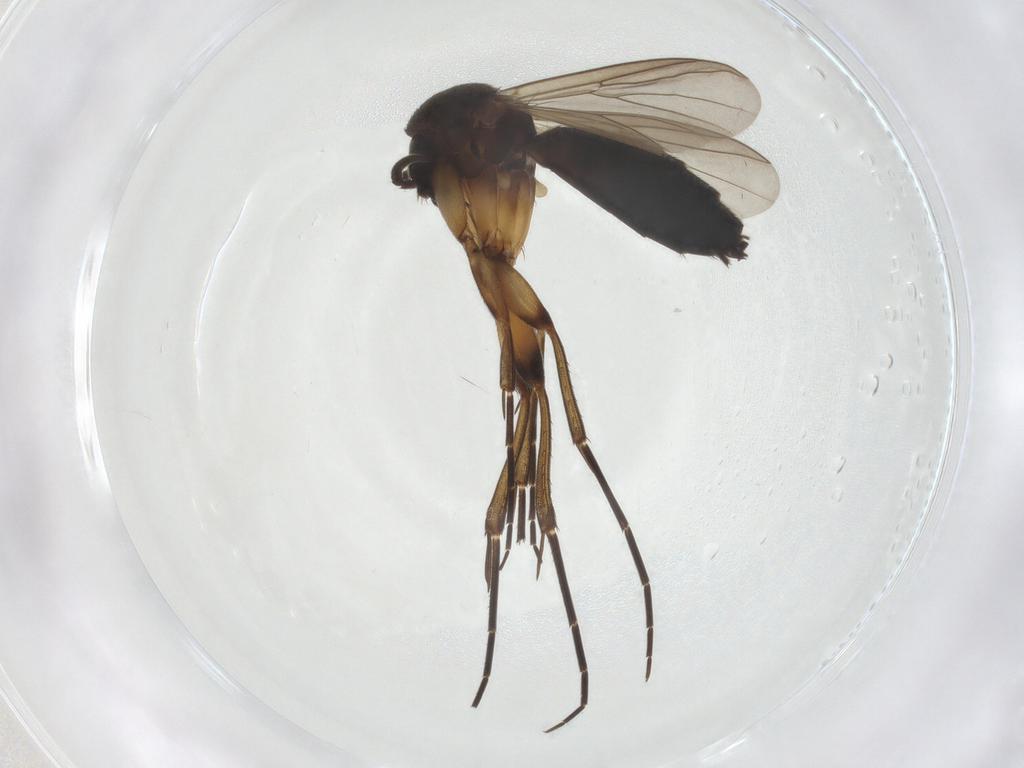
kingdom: Animalia
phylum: Arthropoda
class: Insecta
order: Diptera
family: Mycetophilidae
